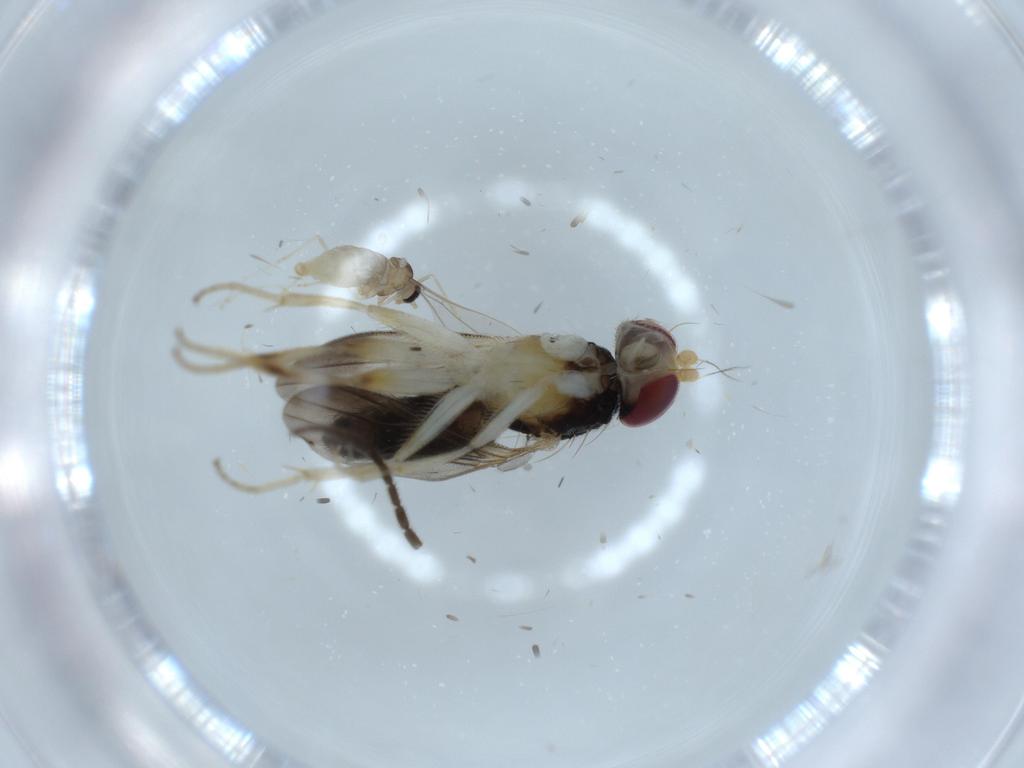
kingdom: Animalia
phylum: Arthropoda
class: Insecta
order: Diptera
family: Clusiidae
